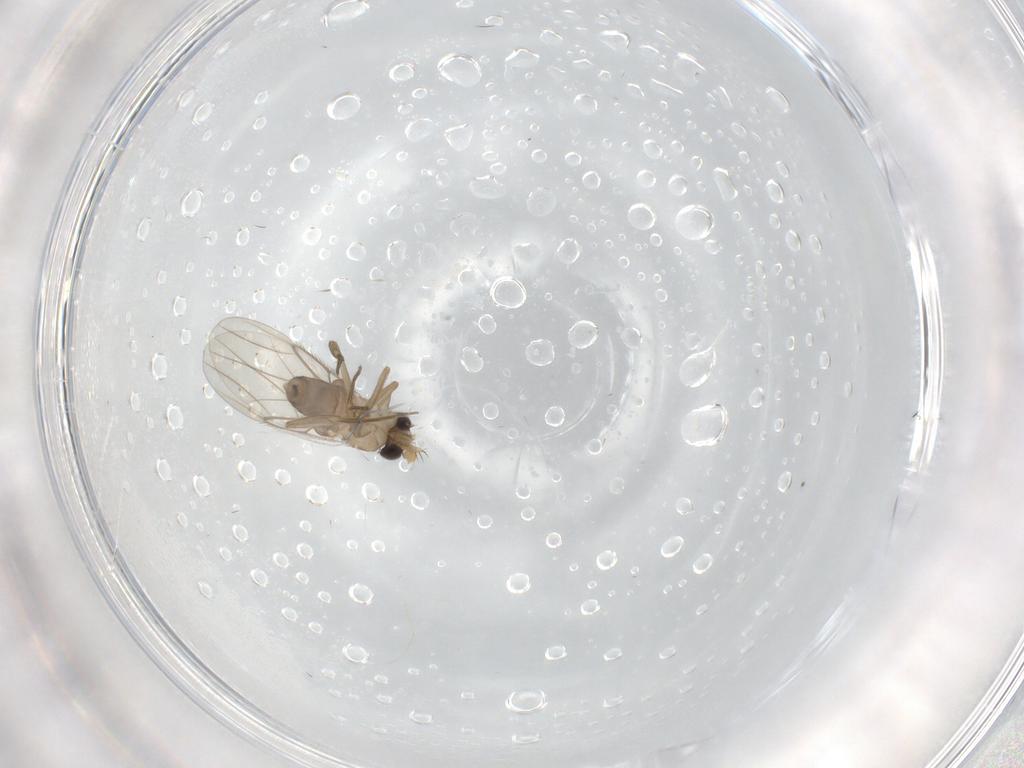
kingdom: Animalia
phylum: Arthropoda
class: Insecta
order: Diptera
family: Phoridae
